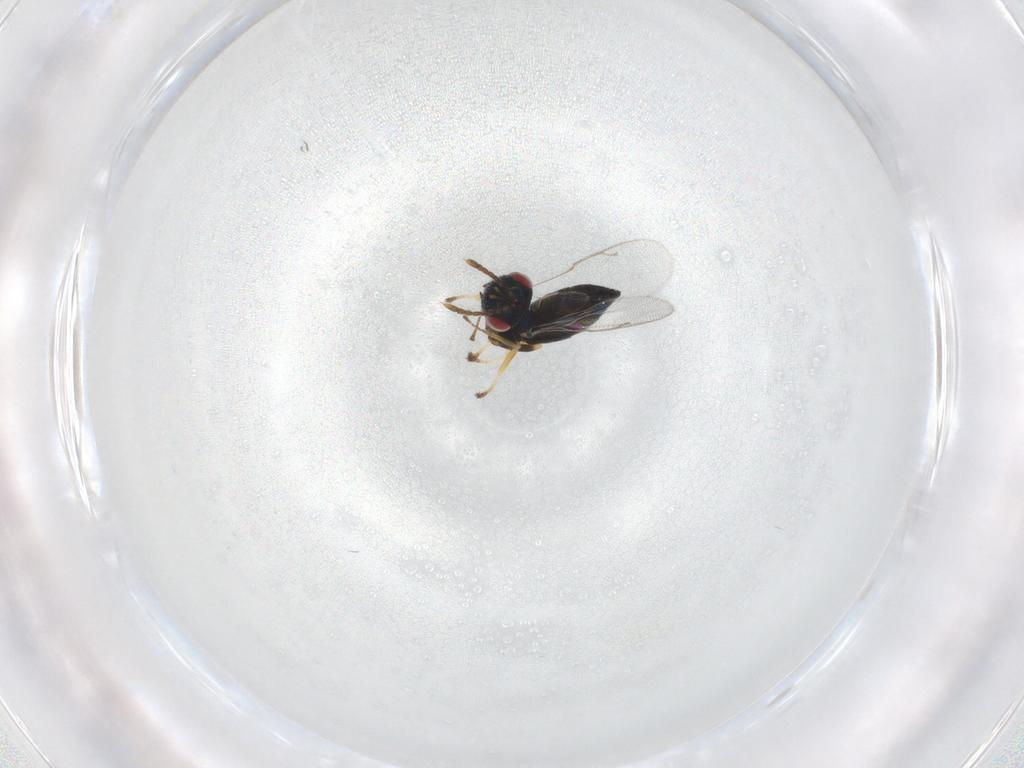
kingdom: Animalia
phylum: Arthropoda
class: Insecta
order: Hymenoptera
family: Pteromalidae
